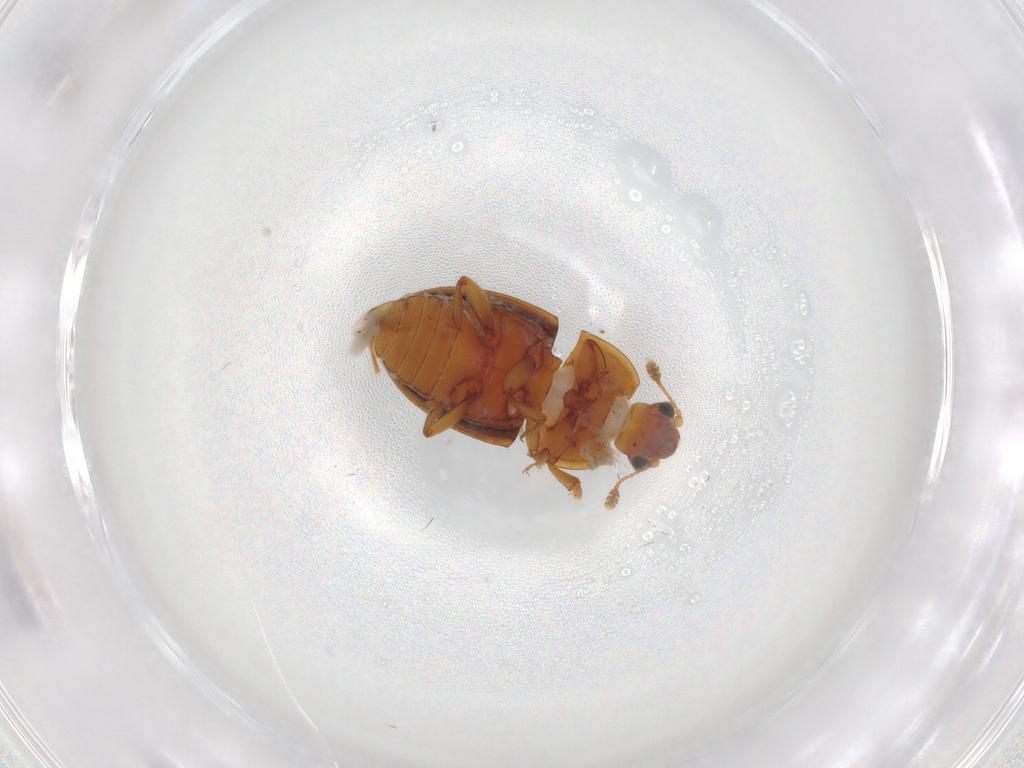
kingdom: Animalia
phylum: Arthropoda
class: Insecta
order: Coleoptera
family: Nitidulidae
